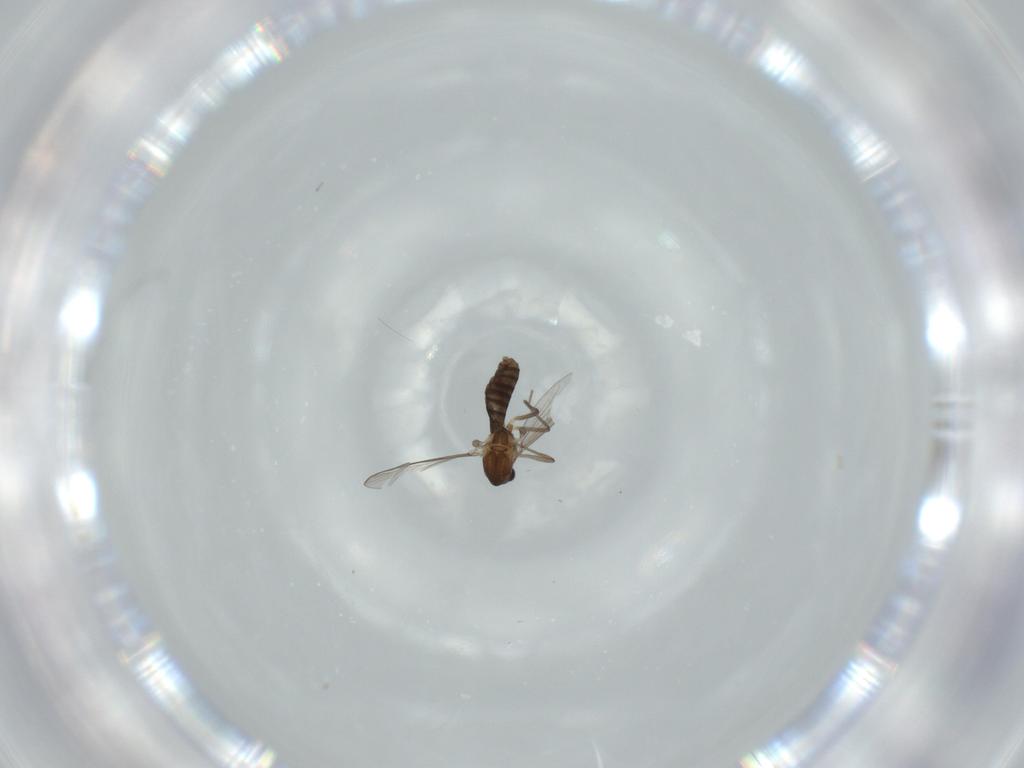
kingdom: Animalia
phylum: Arthropoda
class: Insecta
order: Diptera
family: Chironomidae
